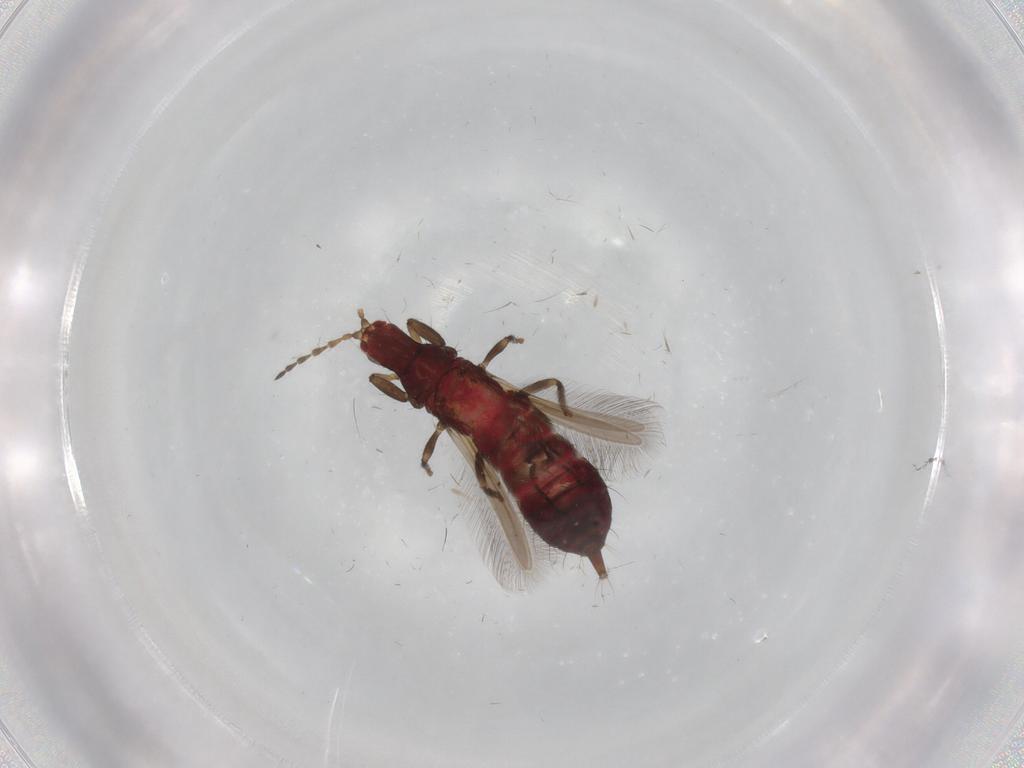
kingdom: Animalia
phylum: Arthropoda
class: Insecta
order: Thysanoptera
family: Phlaeothripidae
